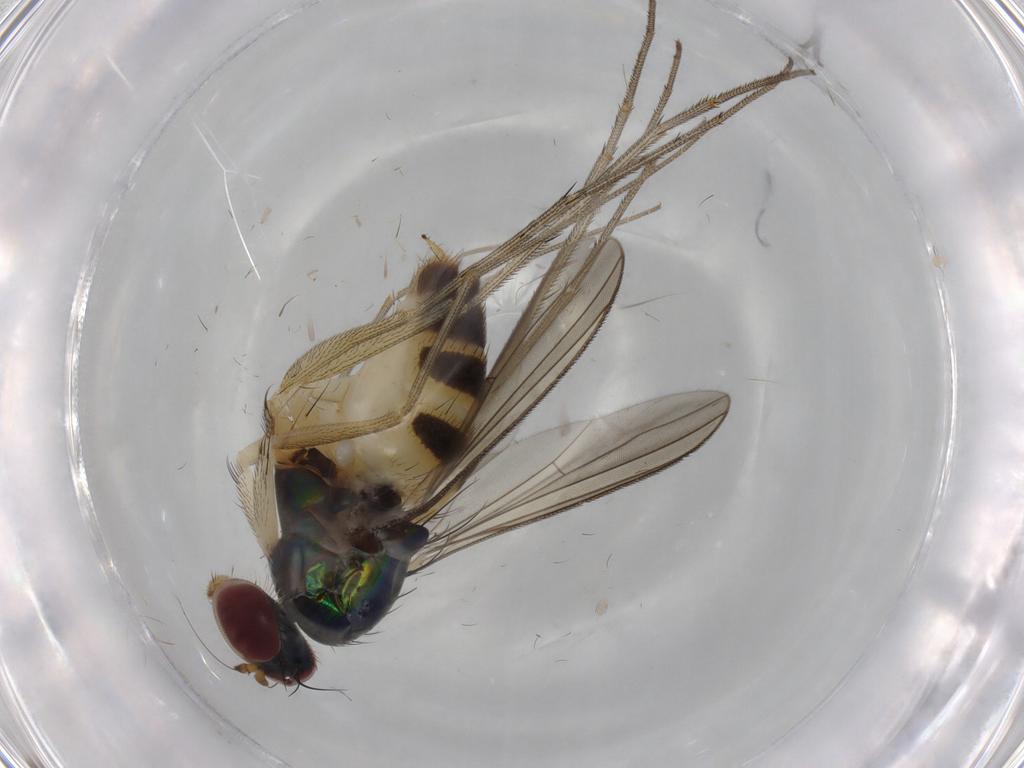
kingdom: Animalia
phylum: Arthropoda
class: Insecta
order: Diptera
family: Dolichopodidae
